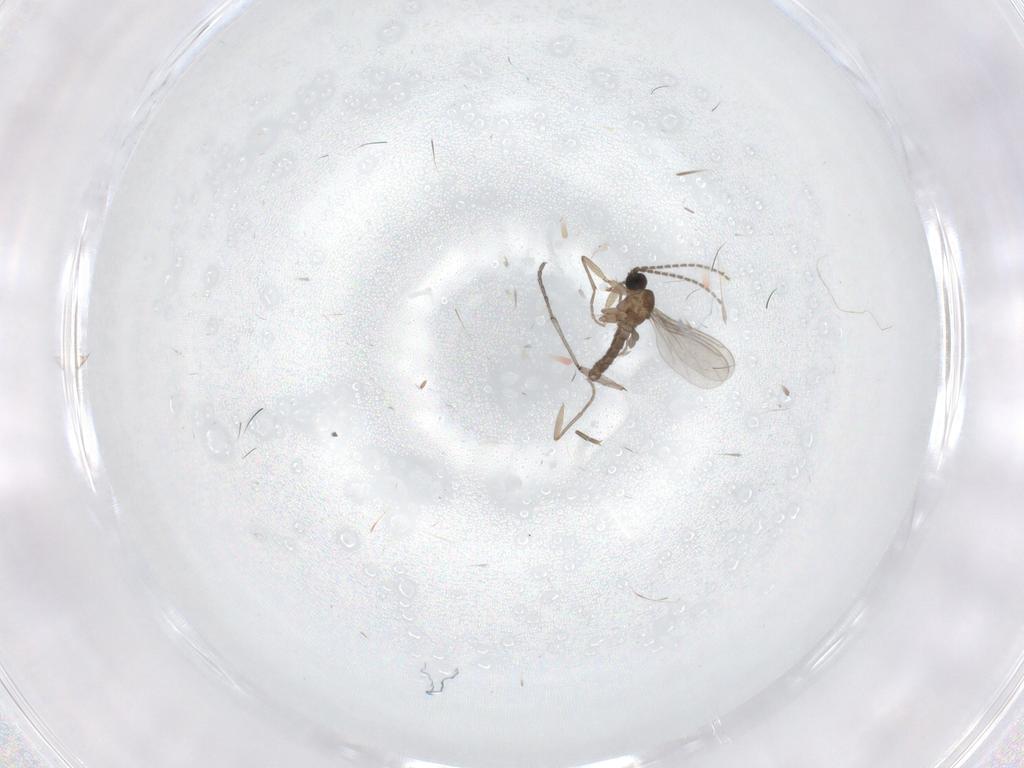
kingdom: Animalia
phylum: Arthropoda
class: Insecta
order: Diptera
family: Sciaridae
